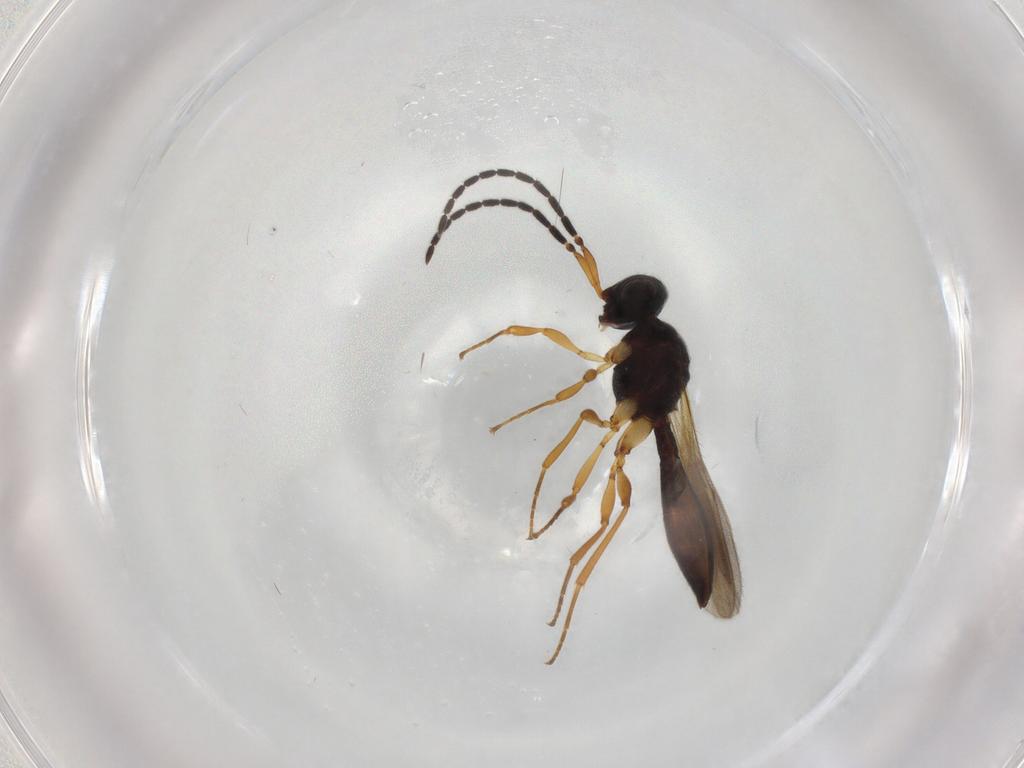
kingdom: Animalia
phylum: Arthropoda
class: Insecta
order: Hymenoptera
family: Scelionidae
